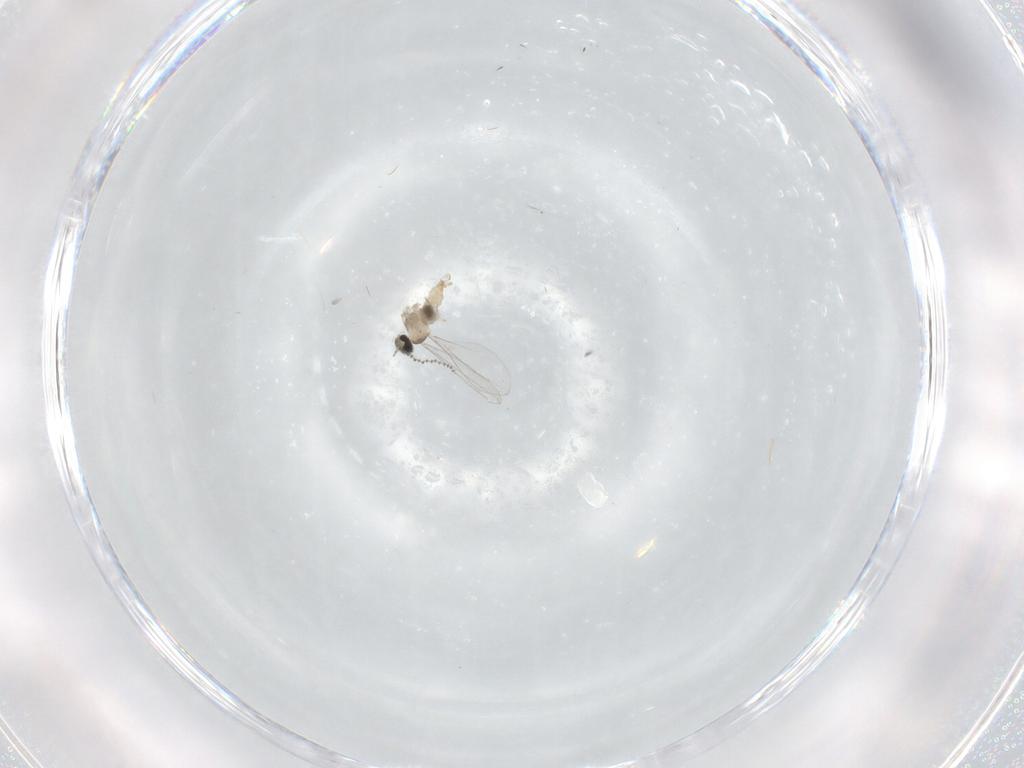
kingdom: Animalia
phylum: Arthropoda
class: Insecta
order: Diptera
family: Cecidomyiidae
